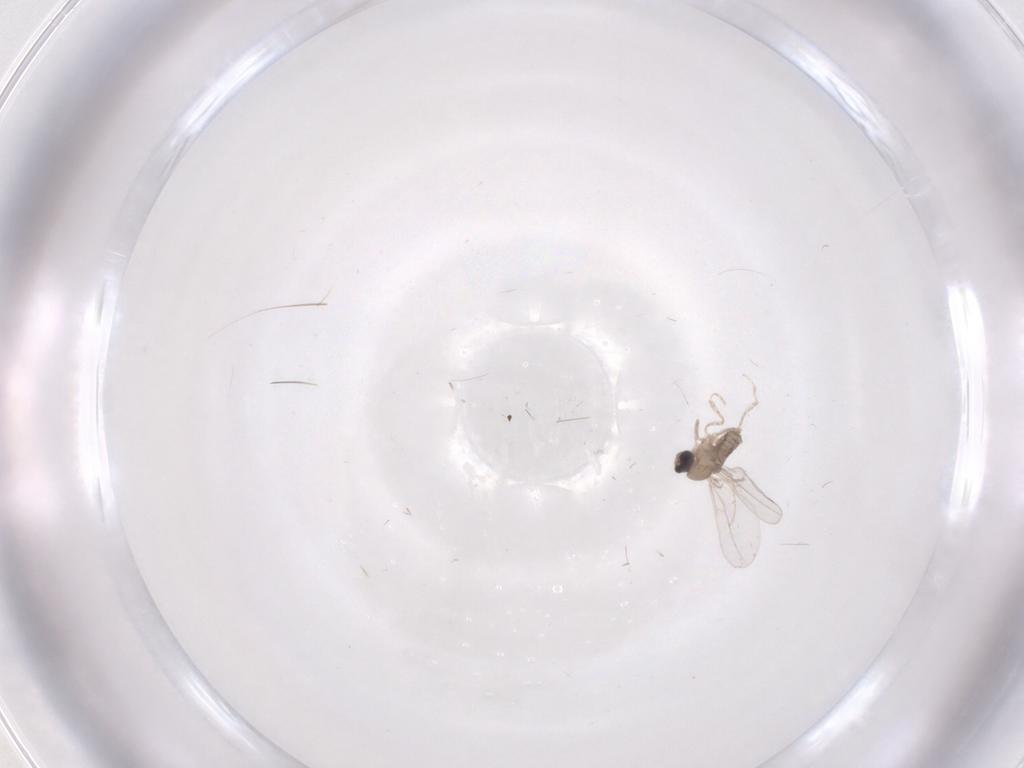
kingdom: Animalia
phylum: Arthropoda
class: Insecta
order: Diptera
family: Cecidomyiidae
